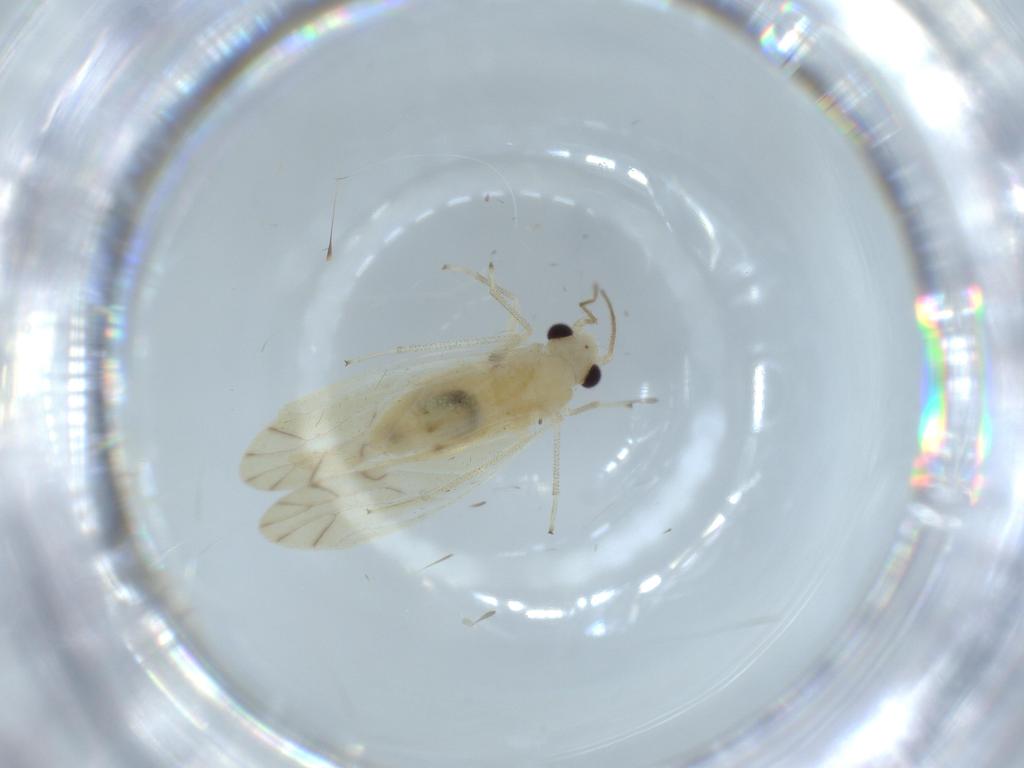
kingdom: Animalia
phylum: Arthropoda
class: Insecta
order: Psocodea
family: Caeciliusidae
